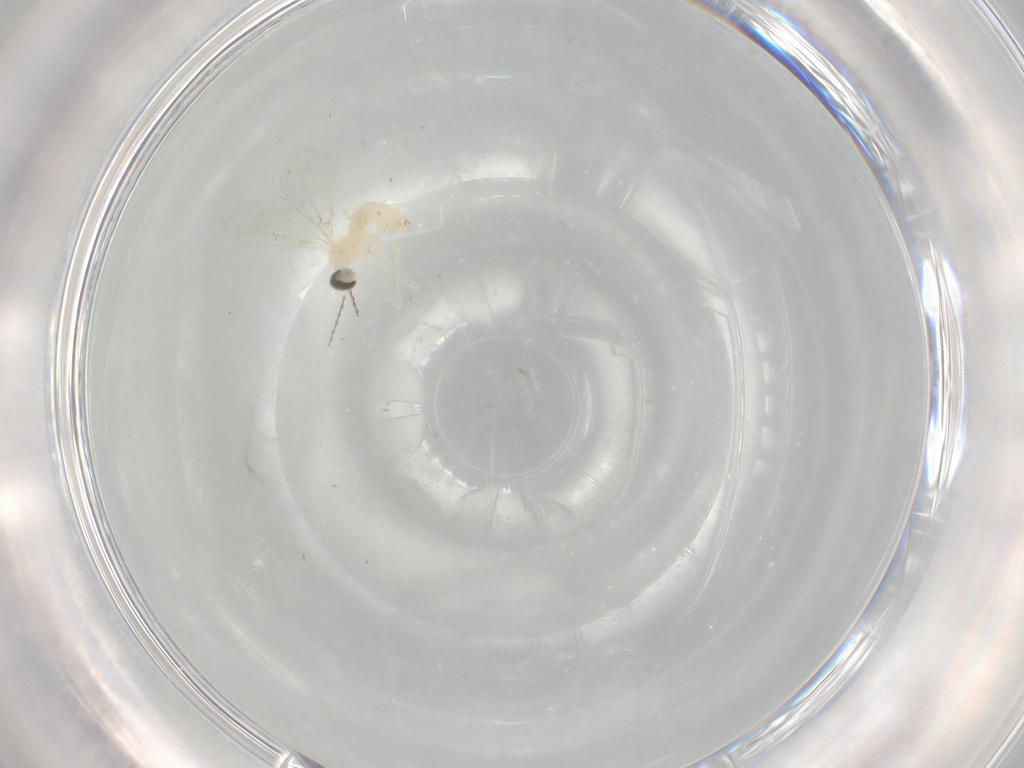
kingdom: Animalia
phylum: Arthropoda
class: Insecta
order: Diptera
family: Cecidomyiidae
